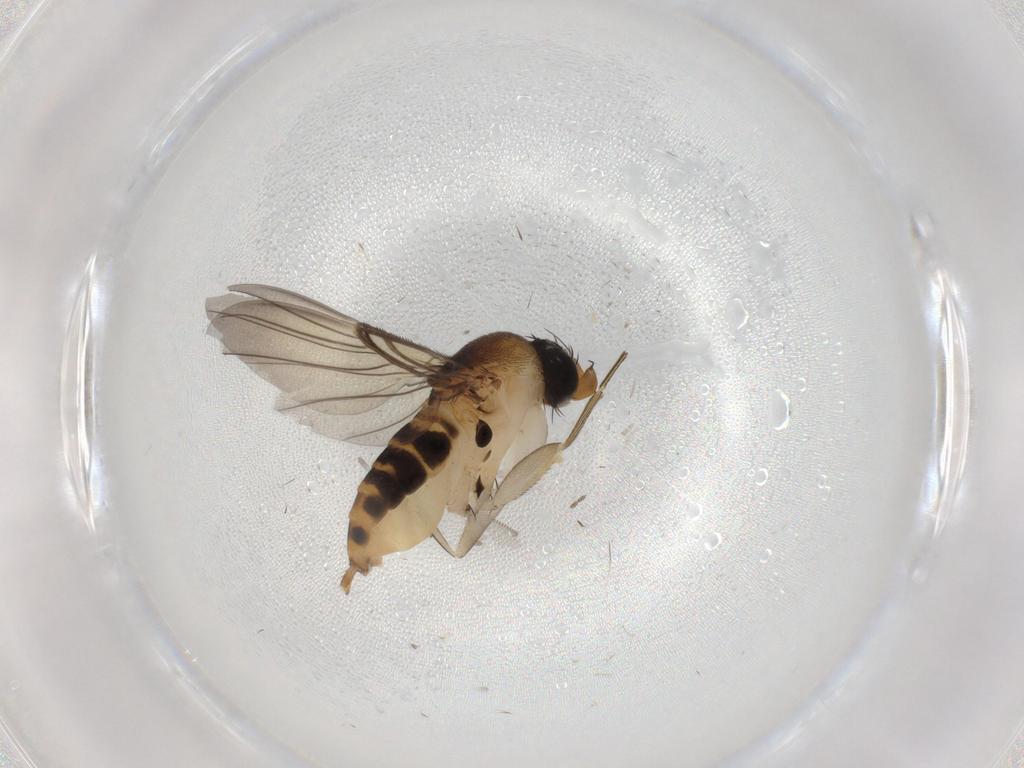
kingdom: Animalia
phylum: Arthropoda
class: Insecta
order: Diptera
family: Phoridae
